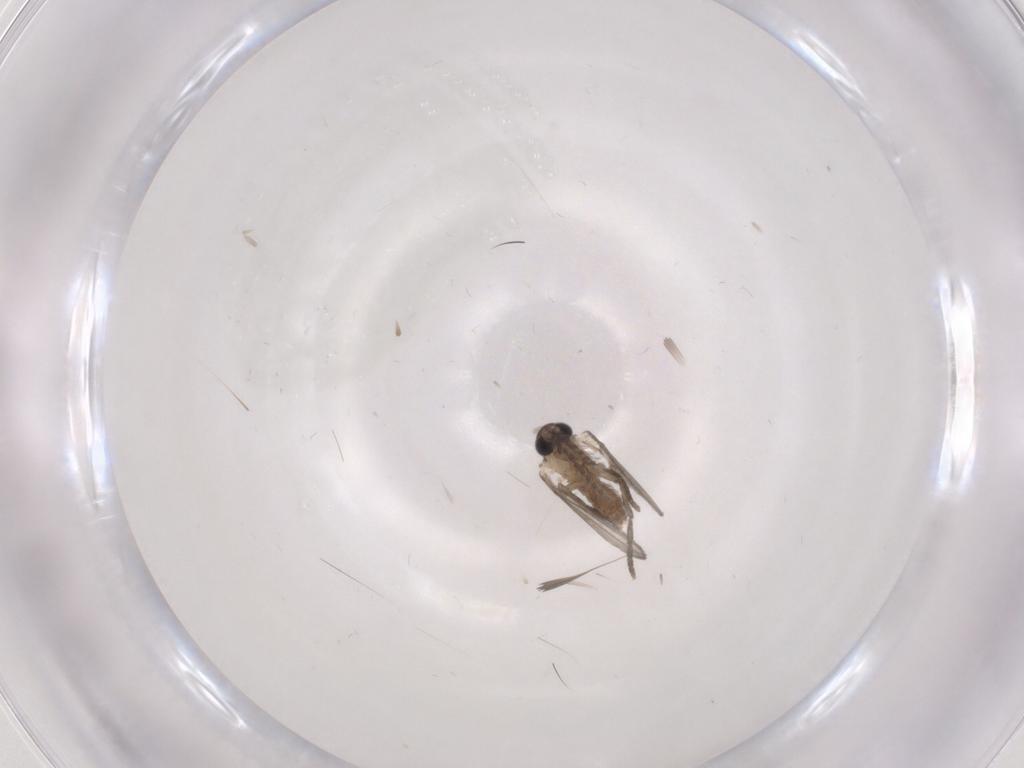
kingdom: Animalia
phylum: Arthropoda
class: Insecta
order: Diptera
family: Psychodidae
